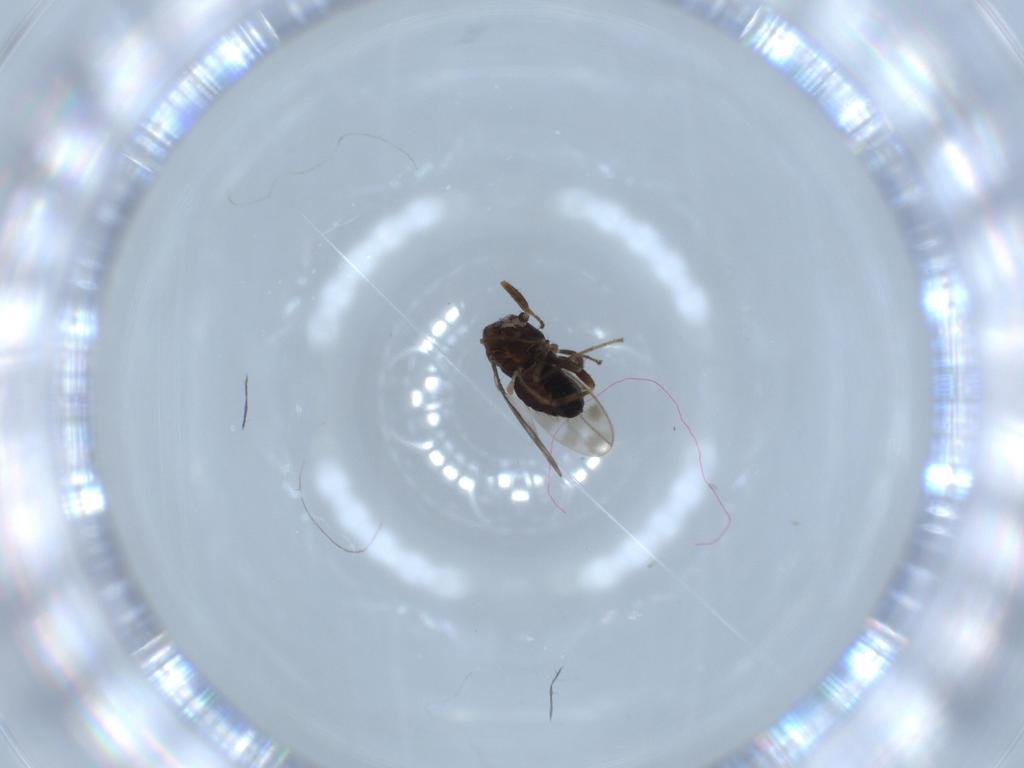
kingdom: Animalia
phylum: Arthropoda
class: Insecta
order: Diptera
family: Sphaeroceridae
